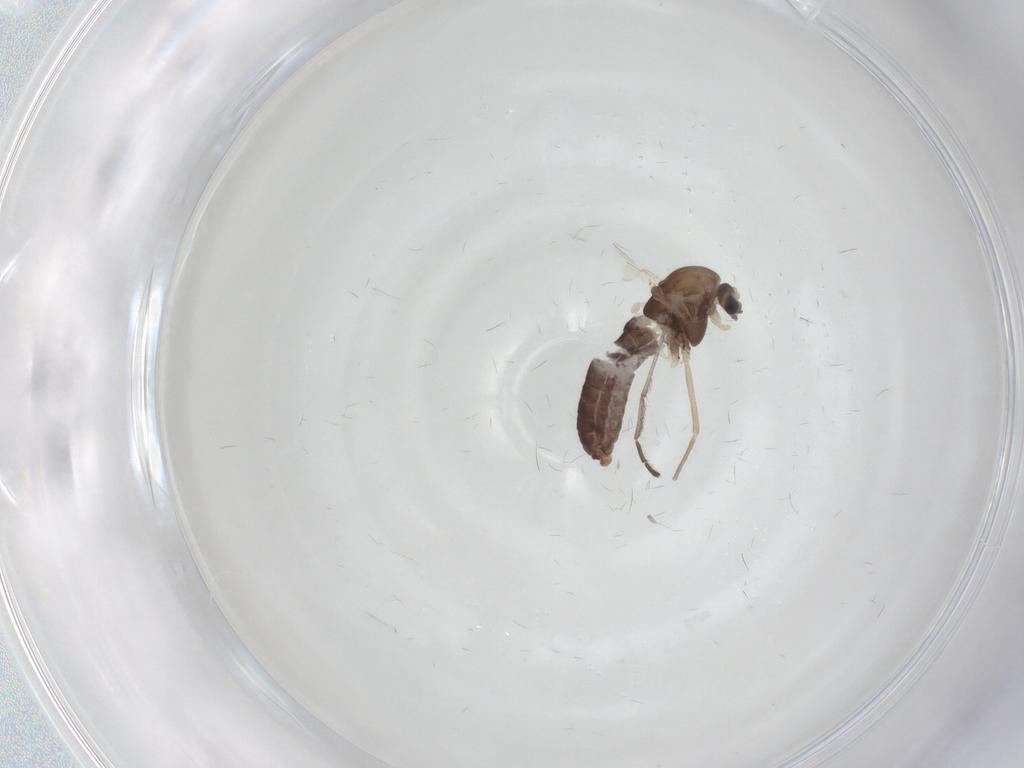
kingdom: Animalia
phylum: Arthropoda
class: Insecta
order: Diptera
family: Chironomidae
